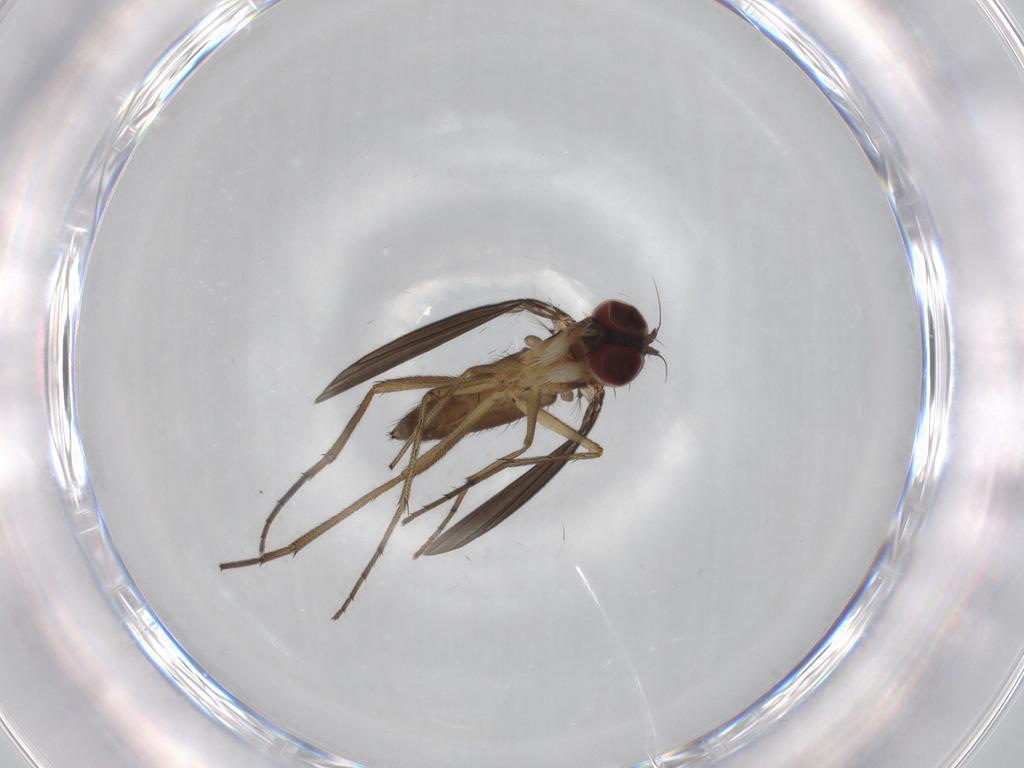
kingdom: Animalia
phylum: Arthropoda
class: Insecta
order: Diptera
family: Dolichopodidae
